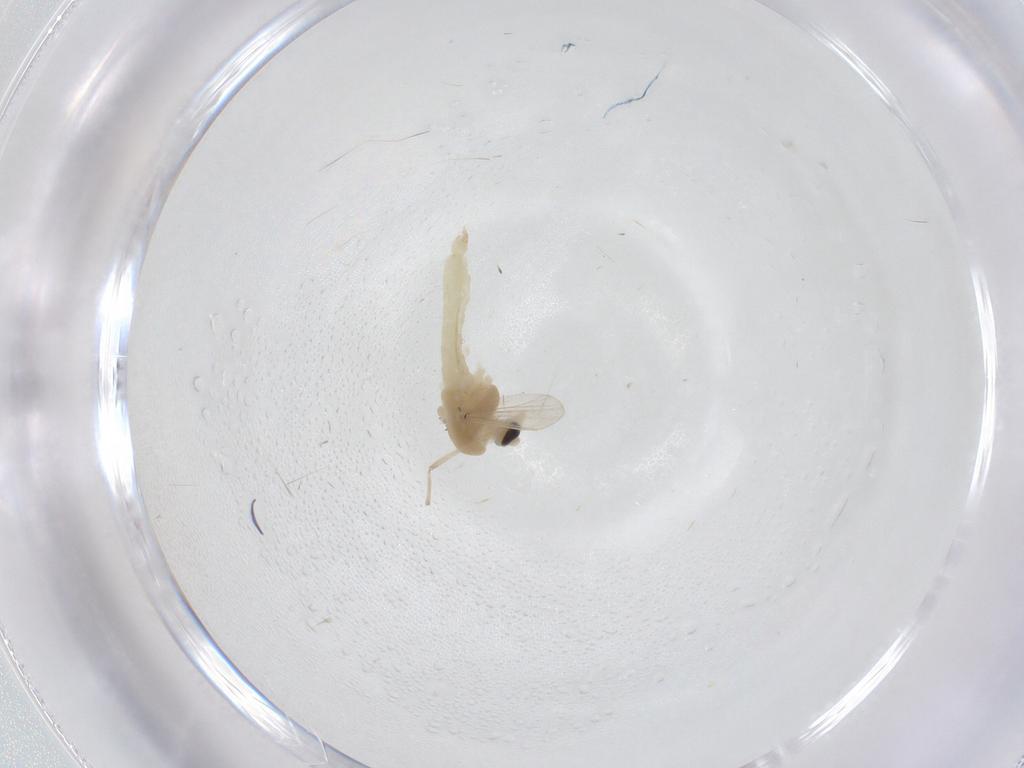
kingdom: Animalia
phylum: Arthropoda
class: Insecta
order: Diptera
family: Chironomidae
